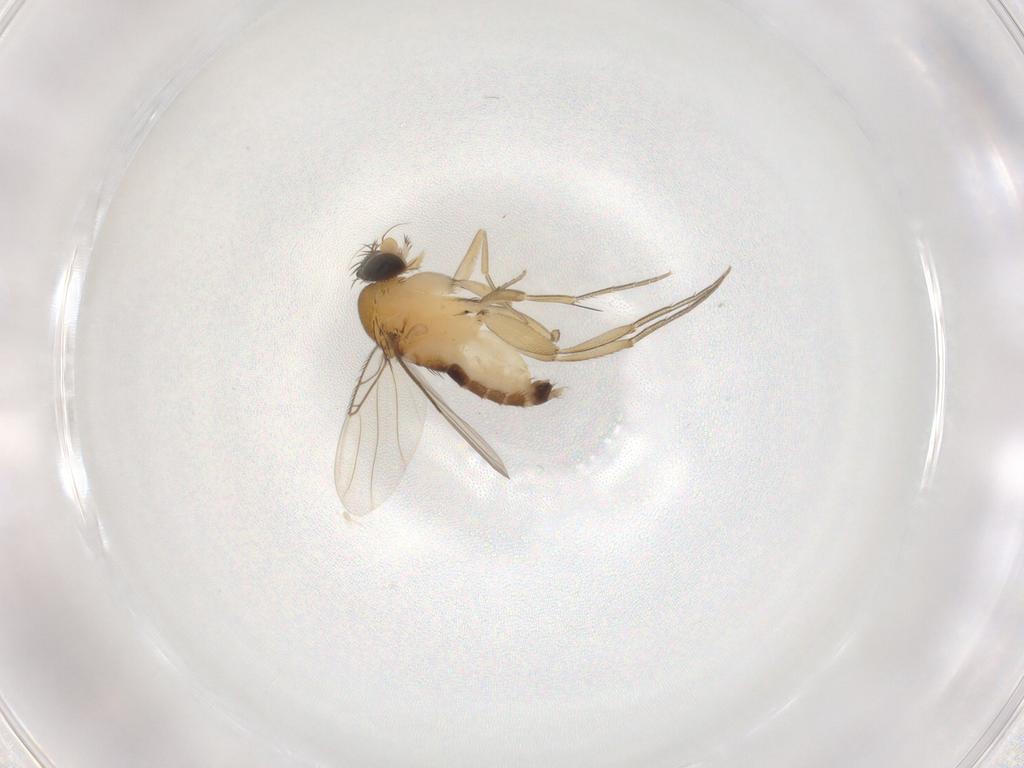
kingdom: Animalia
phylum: Arthropoda
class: Insecta
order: Diptera
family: Phoridae
